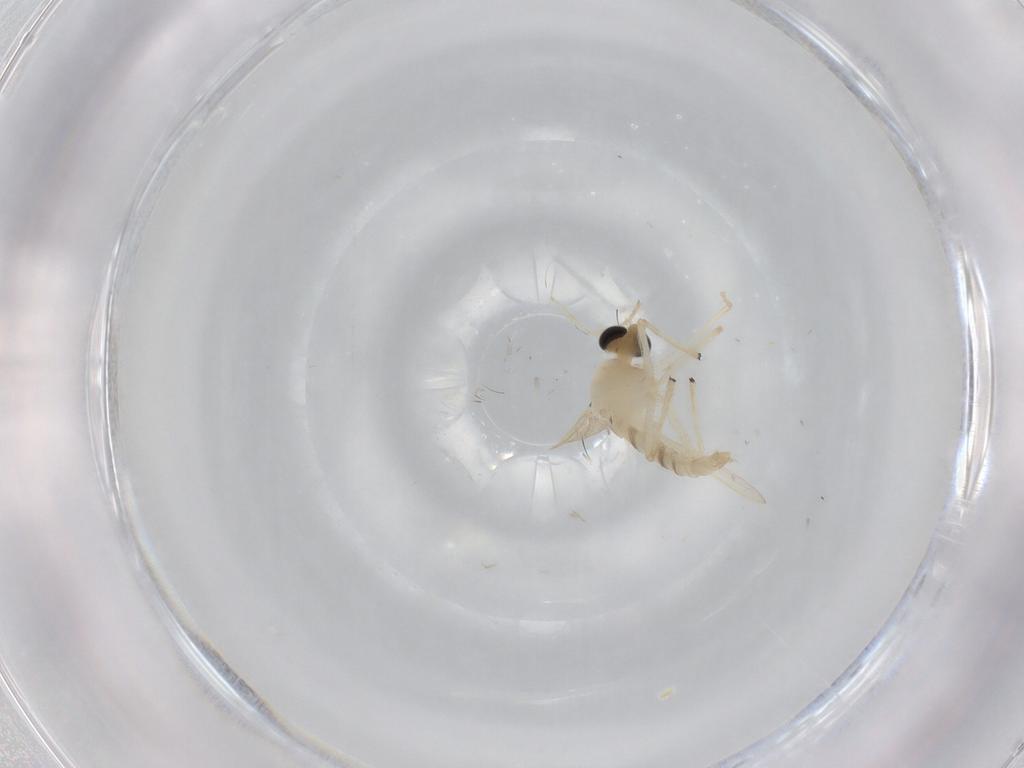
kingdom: Animalia
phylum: Arthropoda
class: Insecta
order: Diptera
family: Chironomidae
